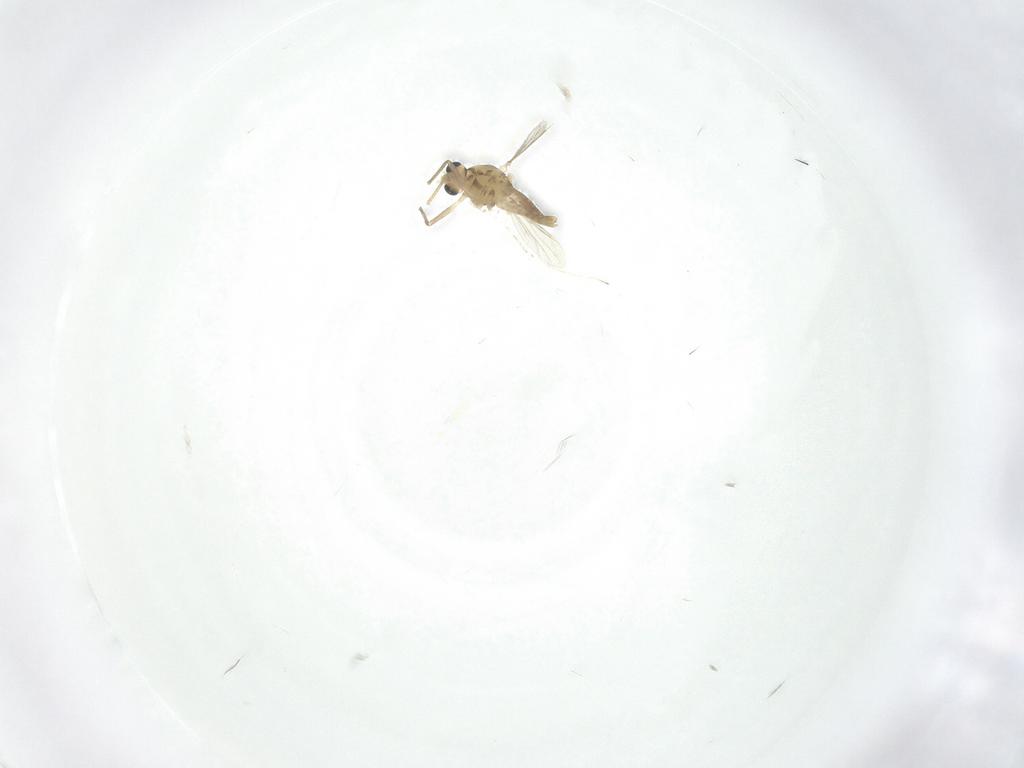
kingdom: Animalia
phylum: Arthropoda
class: Insecta
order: Diptera
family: Chironomidae
